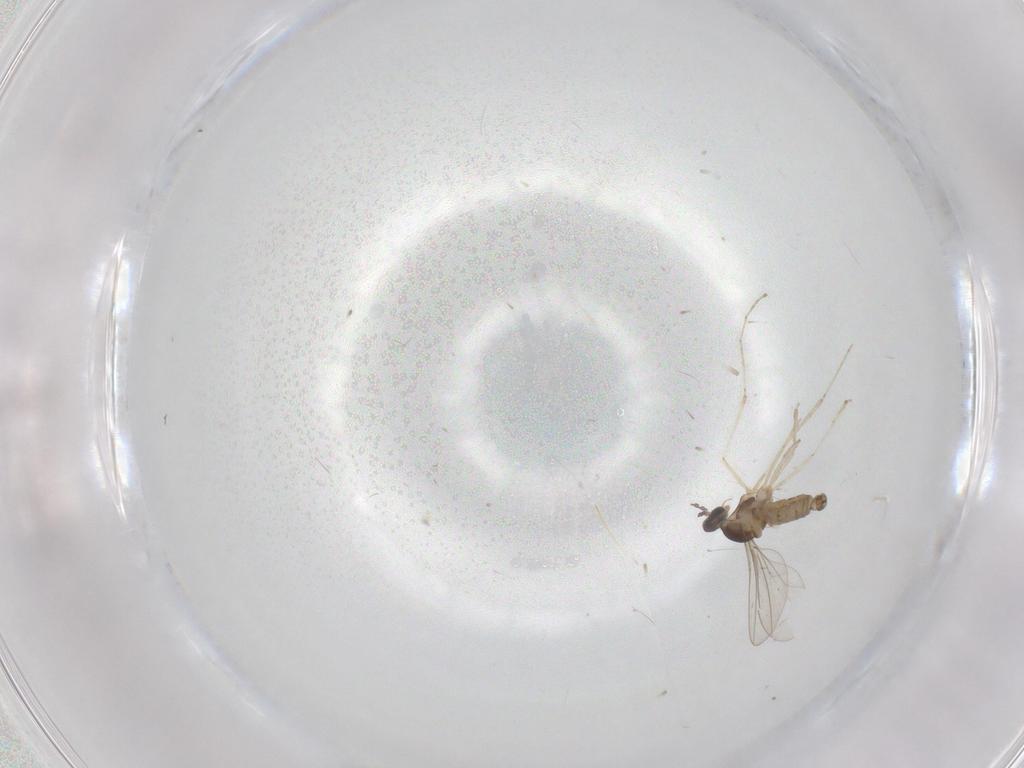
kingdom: Animalia
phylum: Arthropoda
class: Insecta
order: Diptera
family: Cecidomyiidae
